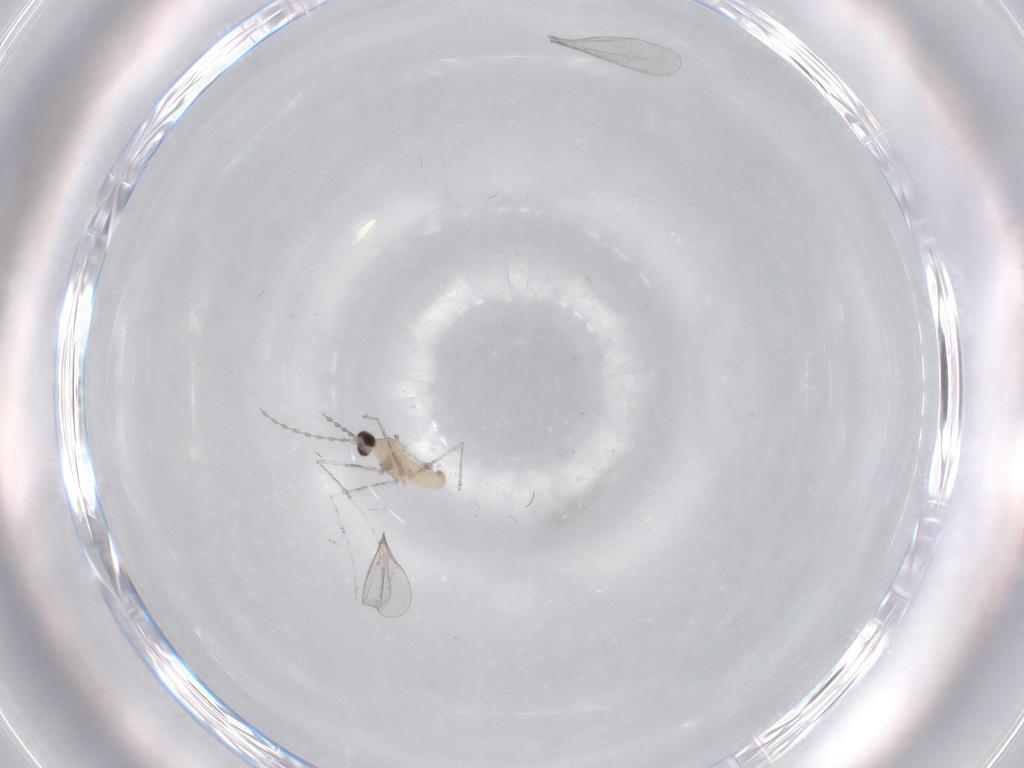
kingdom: Animalia
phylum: Arthropoda
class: Insecta
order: Diptera
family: Cecidomyiidae
